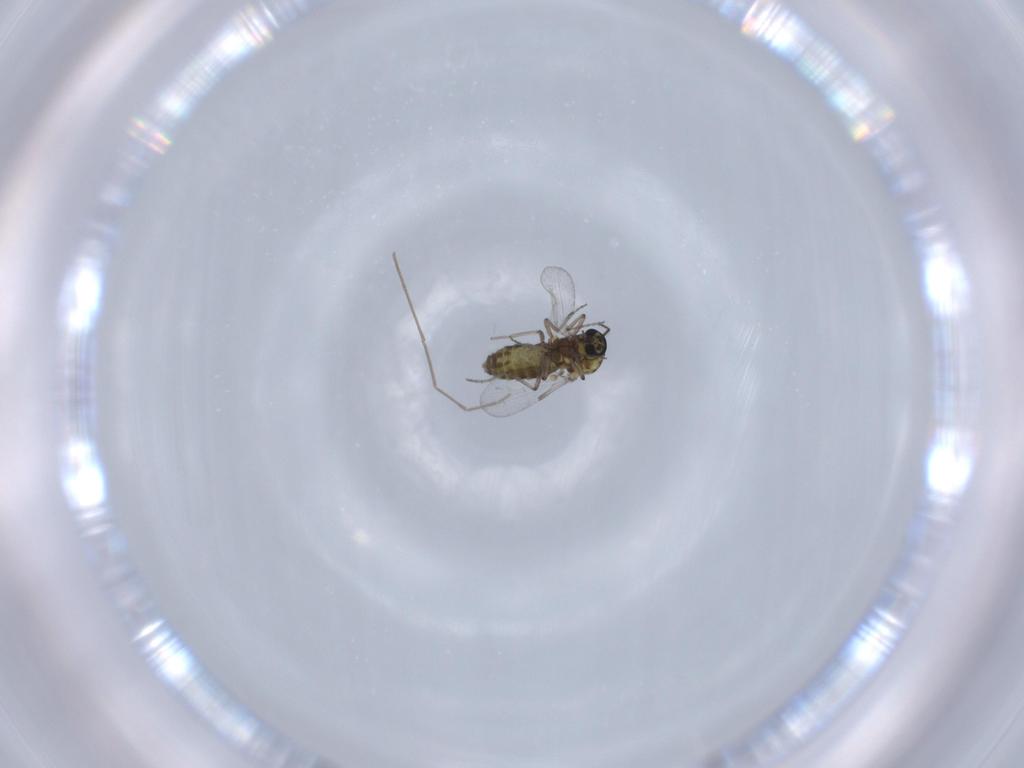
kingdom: Animalia
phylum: Arthropoda
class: Insecta
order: Diptera
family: Ceratopogonidae
